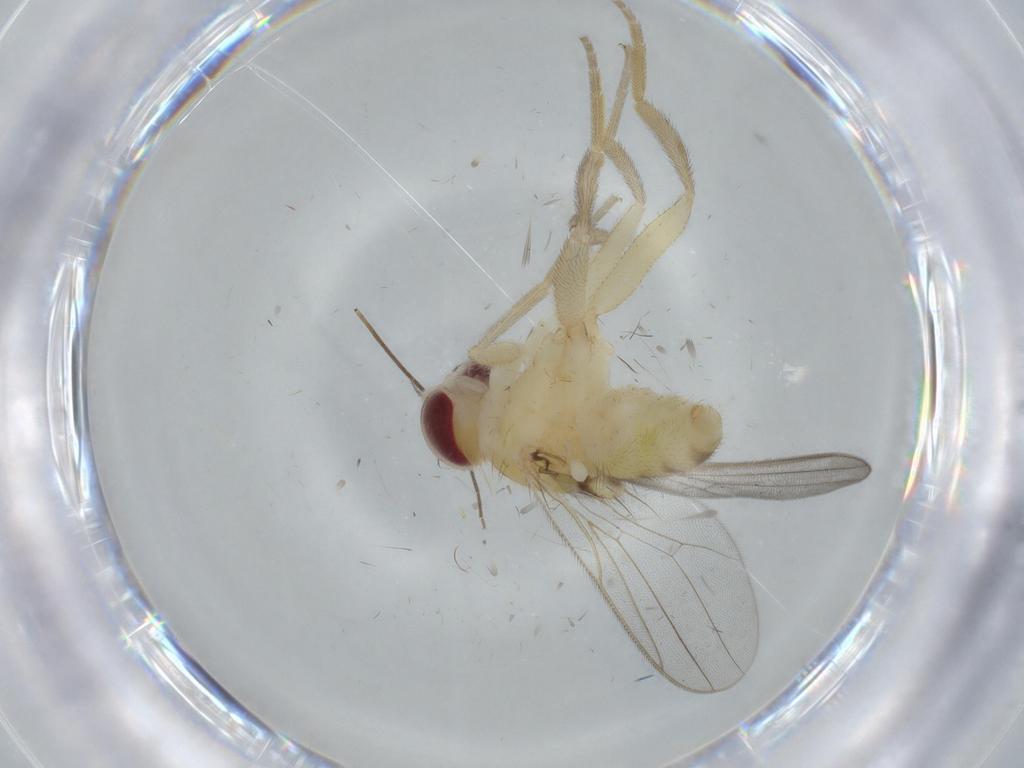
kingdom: Animalia
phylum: Arthropoda
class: Insecta
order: Diptera
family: Chloropidae
